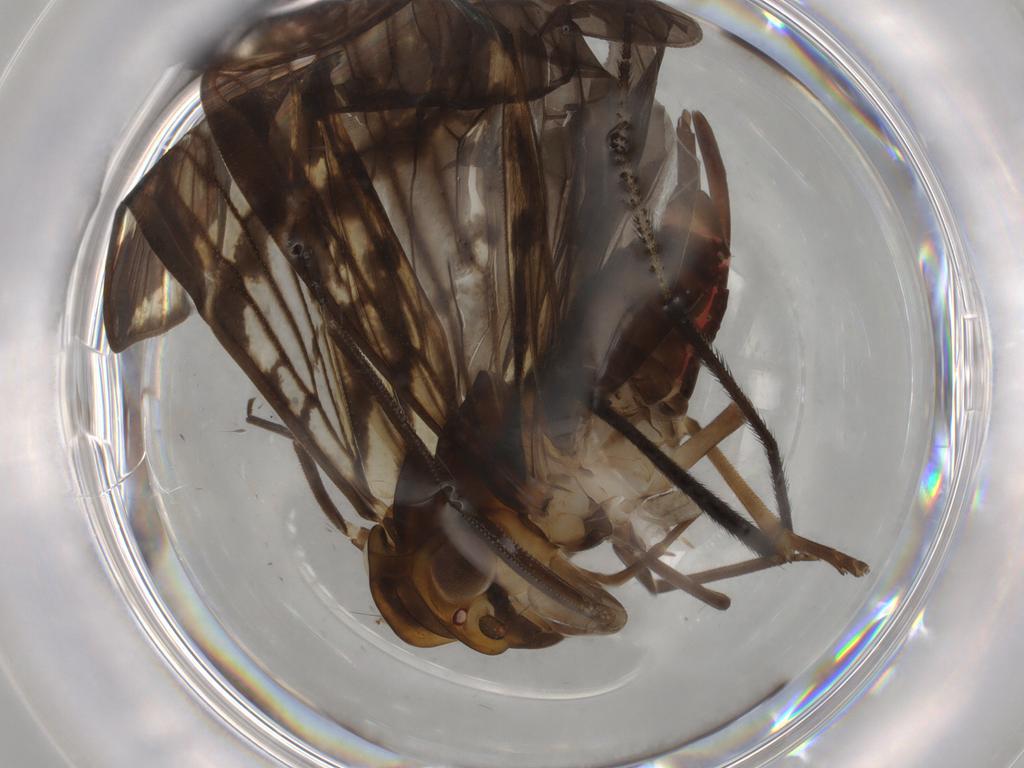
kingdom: Animalia
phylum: Arthropoda
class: Insecta
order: Hemiptera
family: Cixiidae
